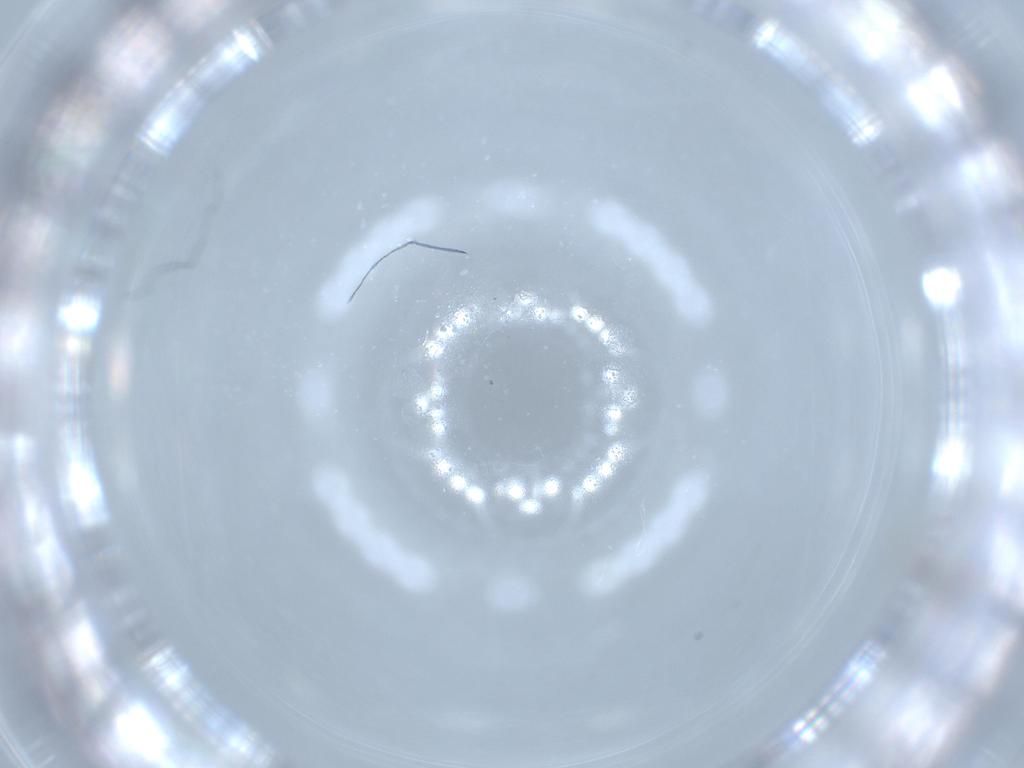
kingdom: Animalia
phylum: Arthropoda
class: Insecta
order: Diptera
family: Cecidomyiidae
